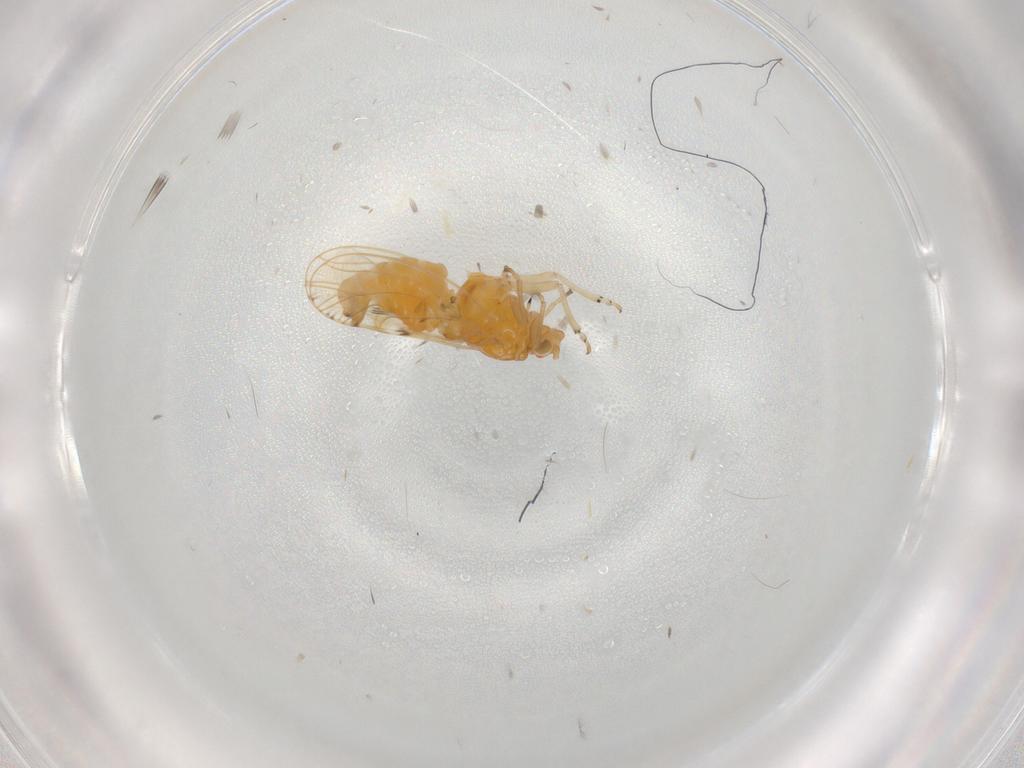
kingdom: Animalia
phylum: Arthropoda
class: Insecta
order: Hemiptera
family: Psylloidea_incertae_sedis
